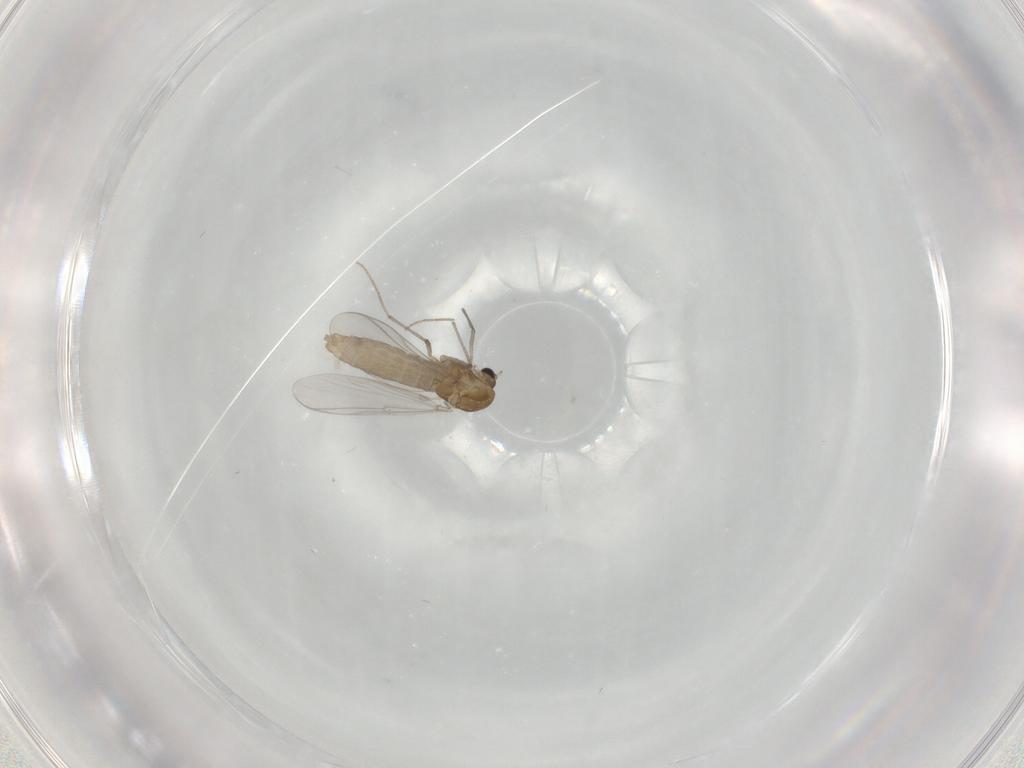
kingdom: Animalia
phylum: Arthropoda
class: Insecta
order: Diptera
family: Chironomidae
